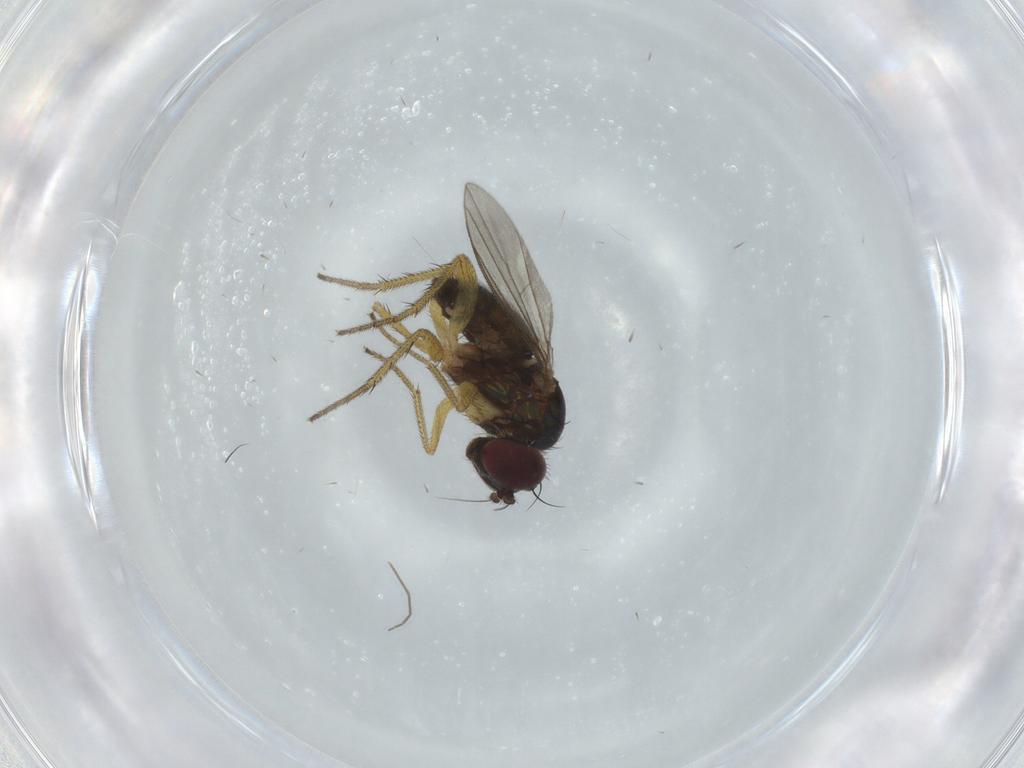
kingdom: Animalia
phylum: Arthropoda
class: Insecta
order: Diptera
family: Dolichopodidae
